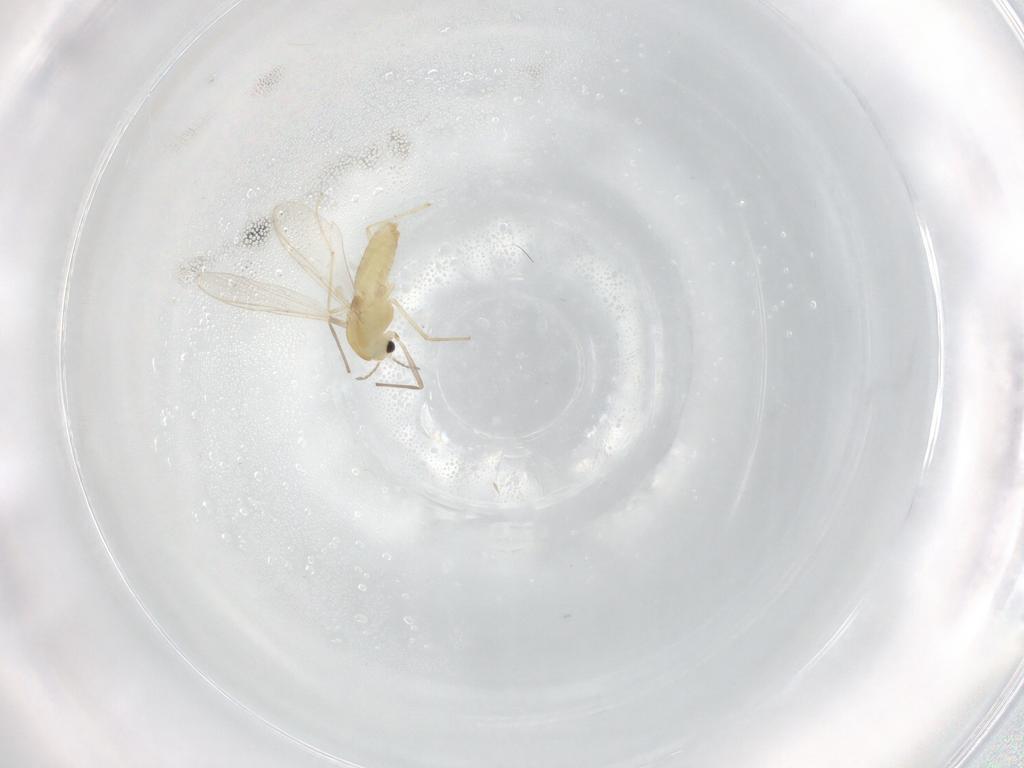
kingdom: Animalia
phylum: Arthropoda
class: Insecta
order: Diptera
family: Chironomidae
